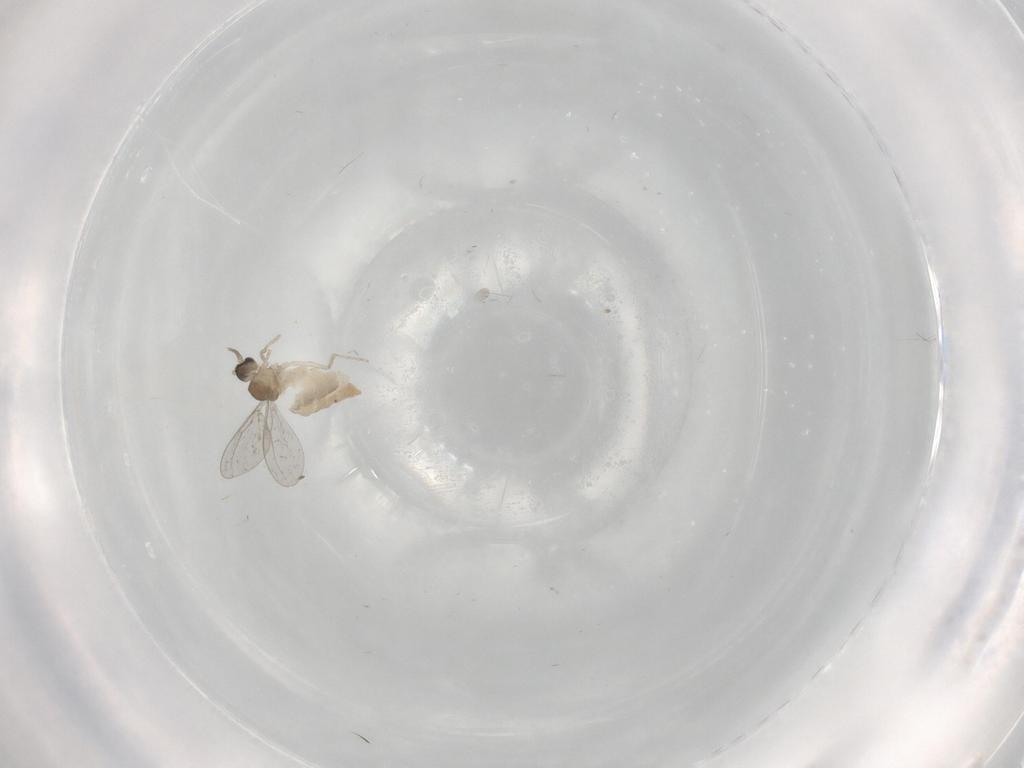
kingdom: Animalia
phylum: Arthropoda
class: Insecta
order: Diptera
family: Cecidomyiidae
